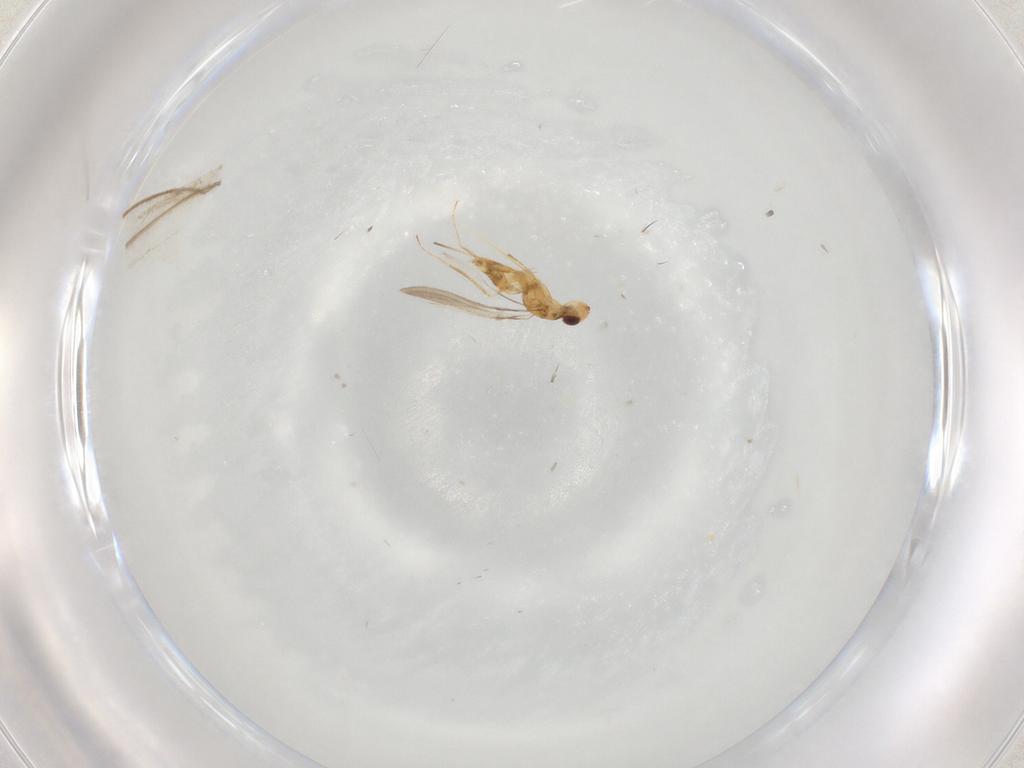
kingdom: Animalia
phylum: Arthropoda
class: Insecta
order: Hymenoptera
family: Mymaridae
